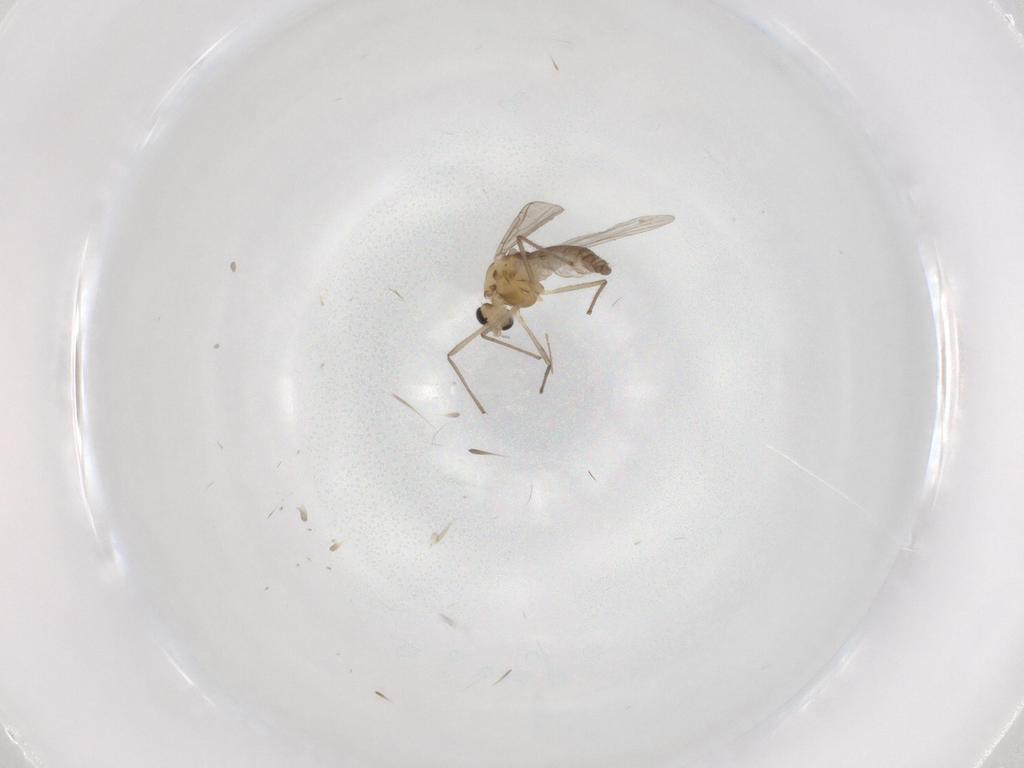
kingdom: Animalia
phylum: Arthropoda
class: Insecta
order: Diptera
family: Chironomidae
